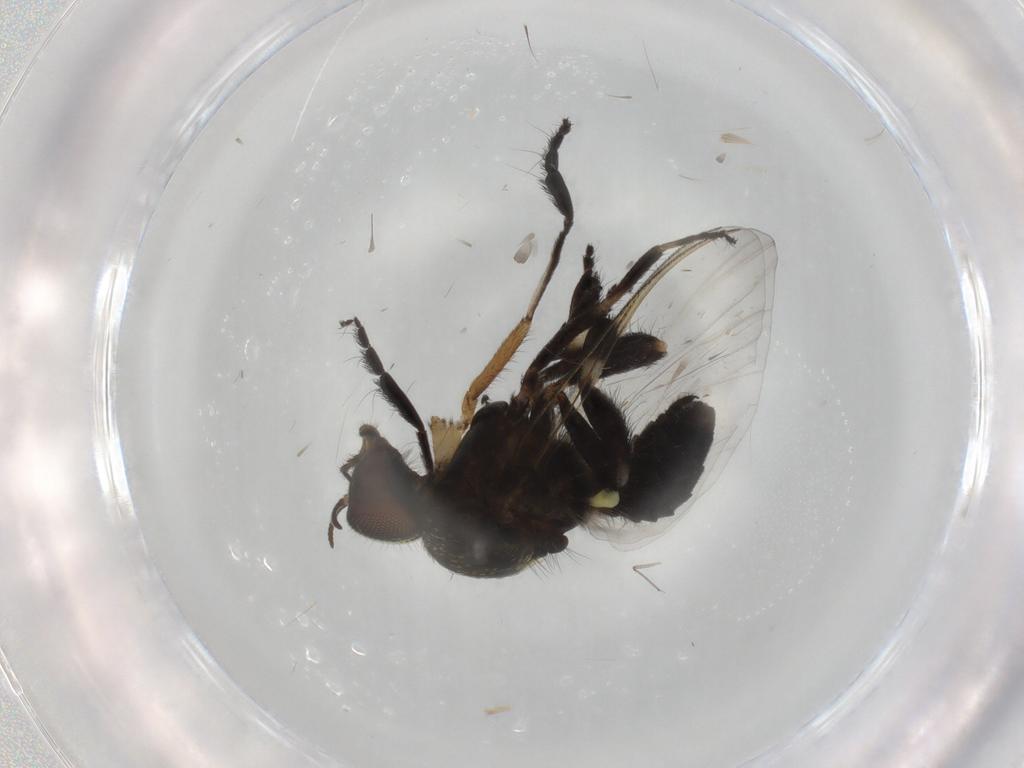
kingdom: Animalia
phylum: Arthropoda
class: Insecta
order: Diptera
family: Cecidomyiidae
